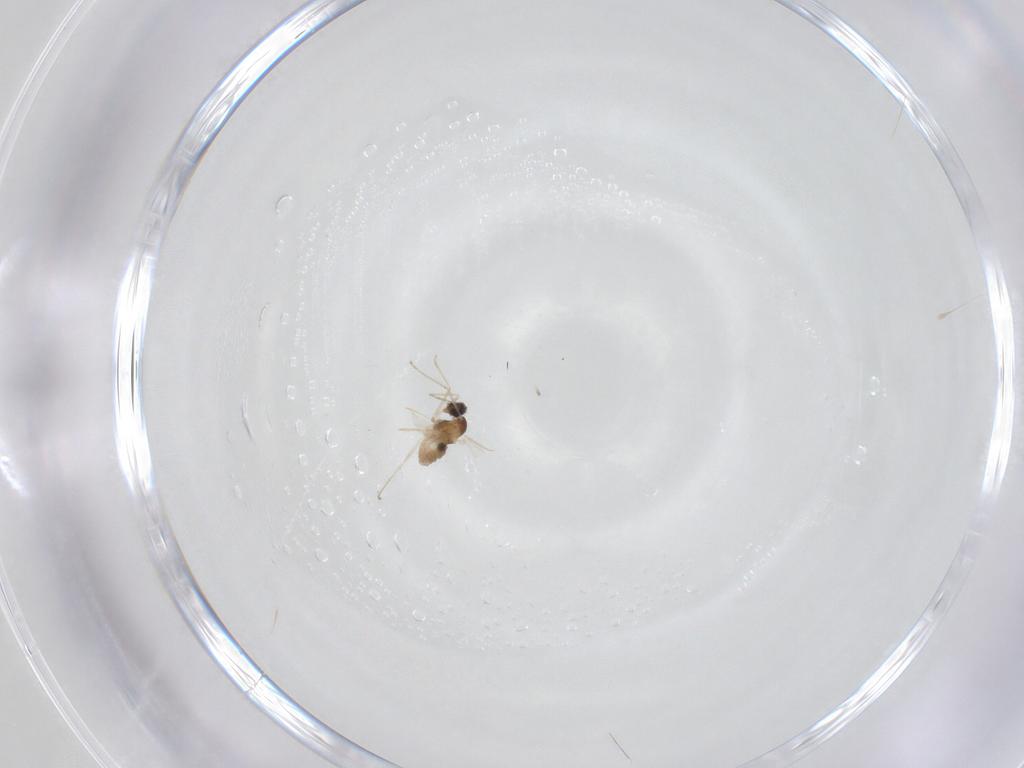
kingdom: Animalia
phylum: Arthropoda
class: Insecta
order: Diptera
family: Cecidomyiidae
